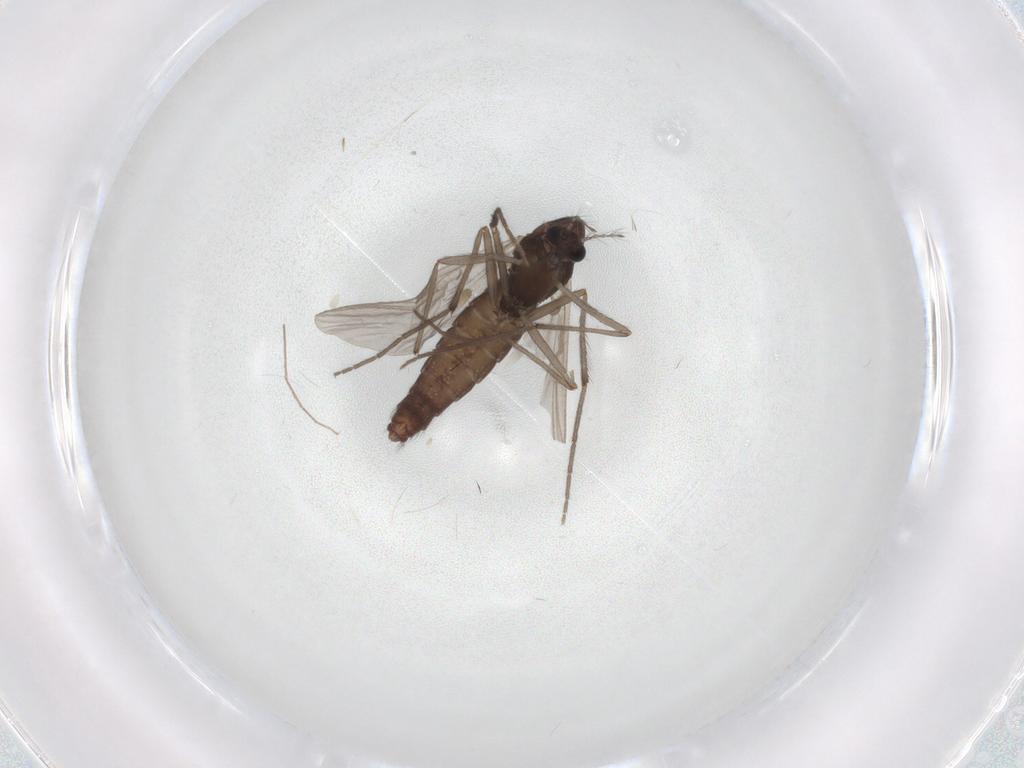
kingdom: Animalia
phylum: Arthropoda
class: Insecta
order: Diptera
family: Chironomidae
